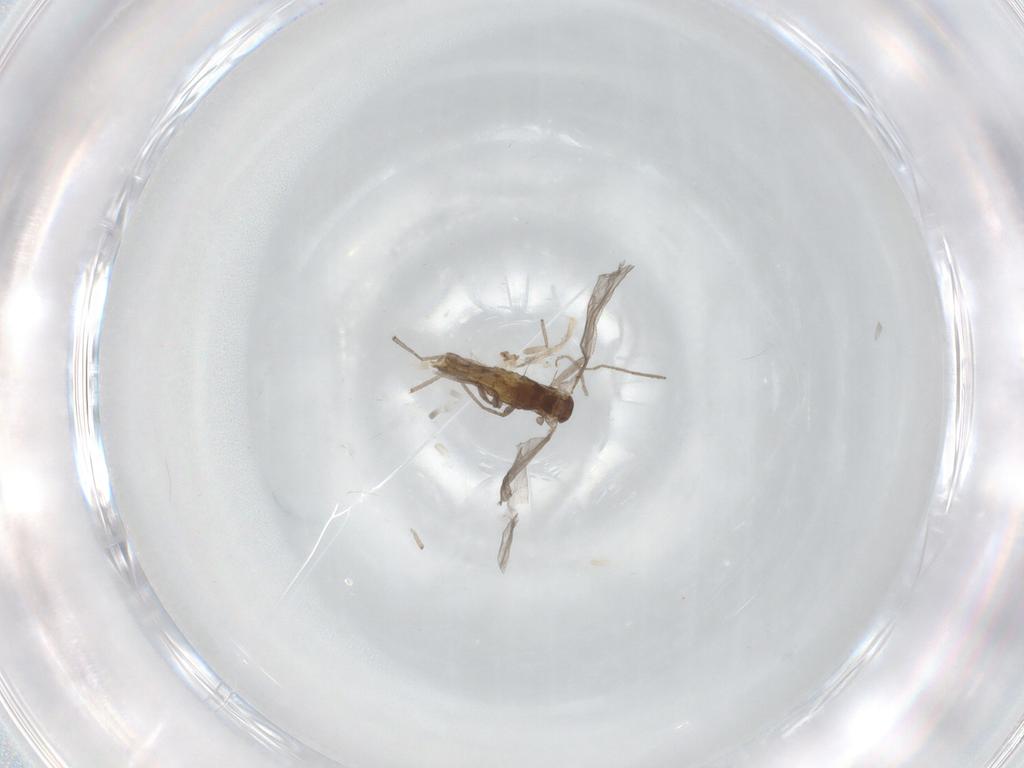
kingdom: Animalia
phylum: Arthropoda
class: Insecta
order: Diptera
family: Chironomidae
